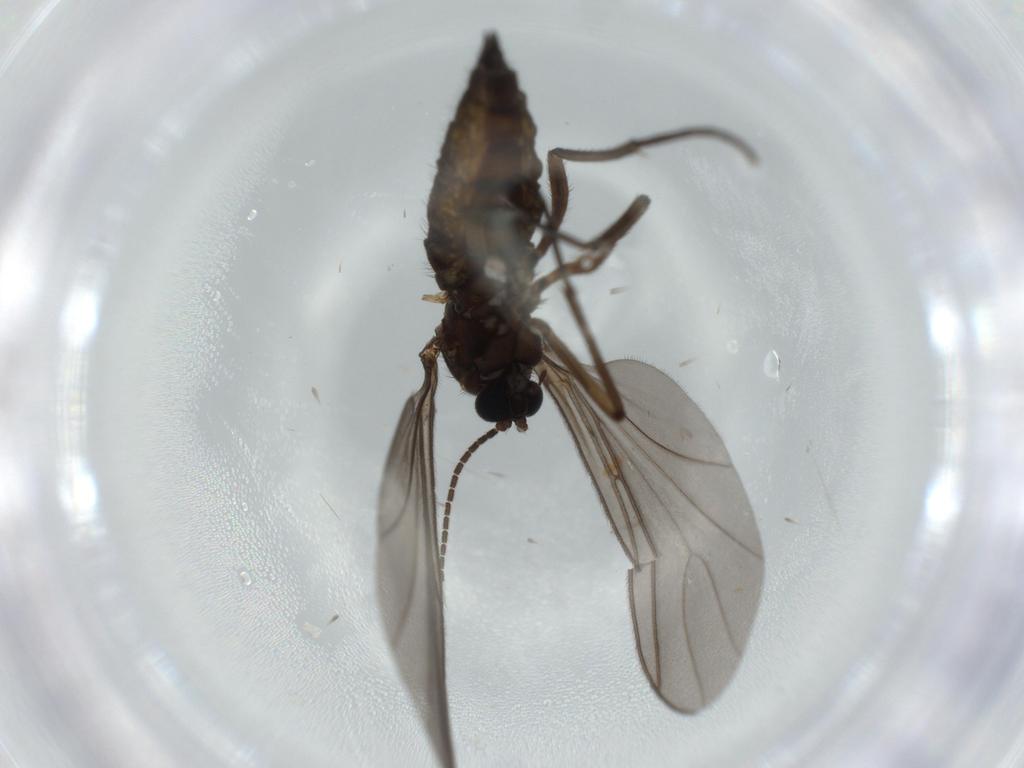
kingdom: Animalia
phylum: Arthropoda
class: Insecta
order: Diptera
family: Sciaridae
